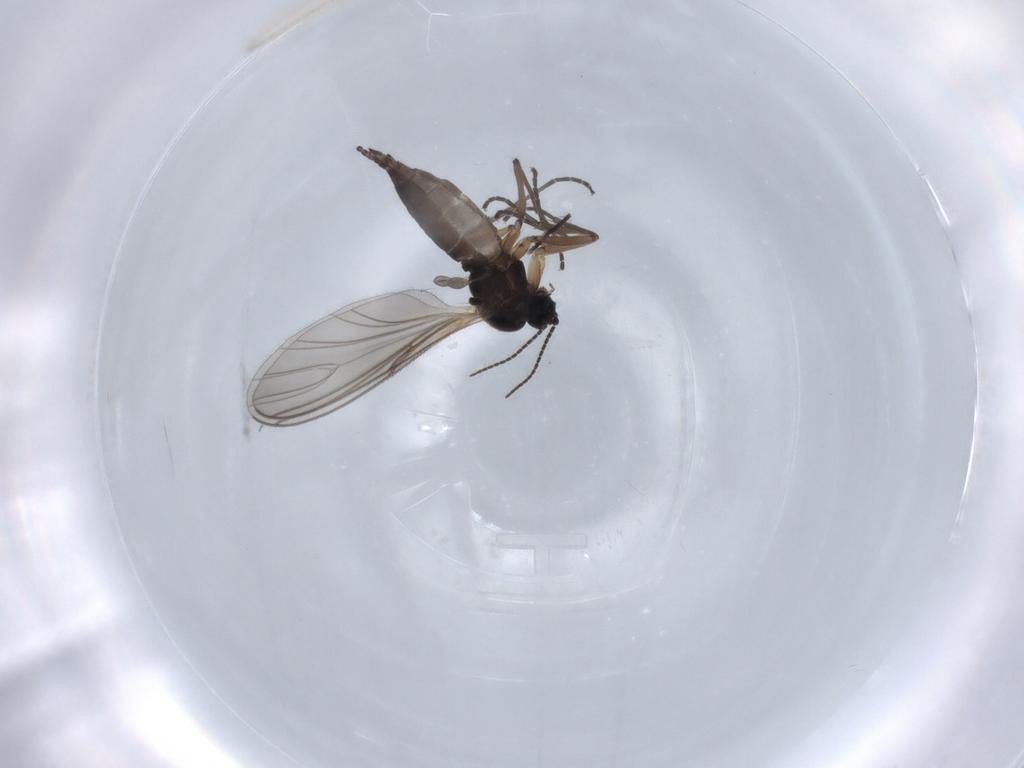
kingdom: Animalia
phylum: Arthropoda
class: Insecta
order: Diptera
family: Sciaridae
